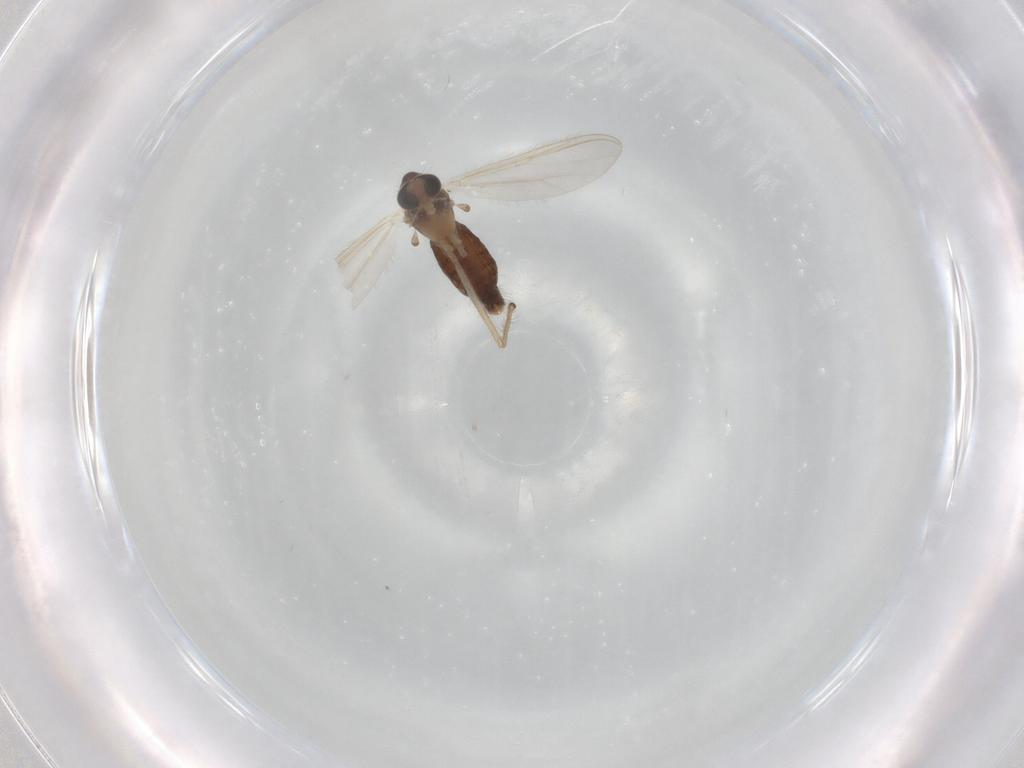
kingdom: Animalia
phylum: Arthropoda
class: Insecta
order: Diptera
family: Chironomidae
